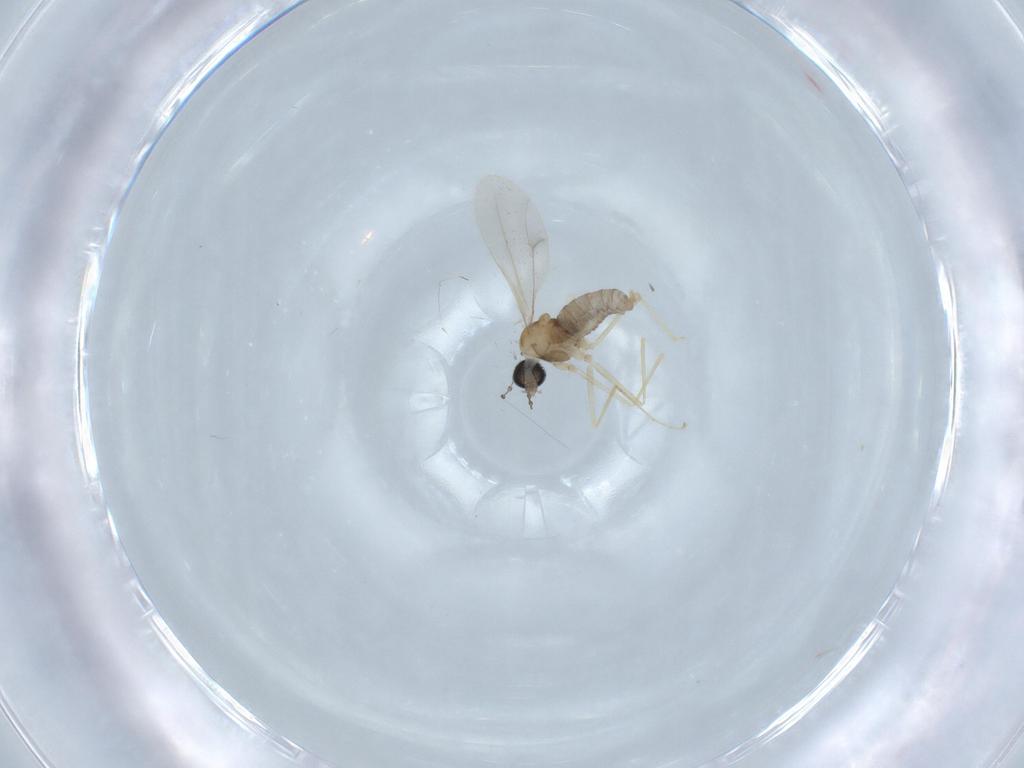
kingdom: Animalia
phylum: Arthropoda
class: Insecta
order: Diptera
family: Cecidomyiidae
